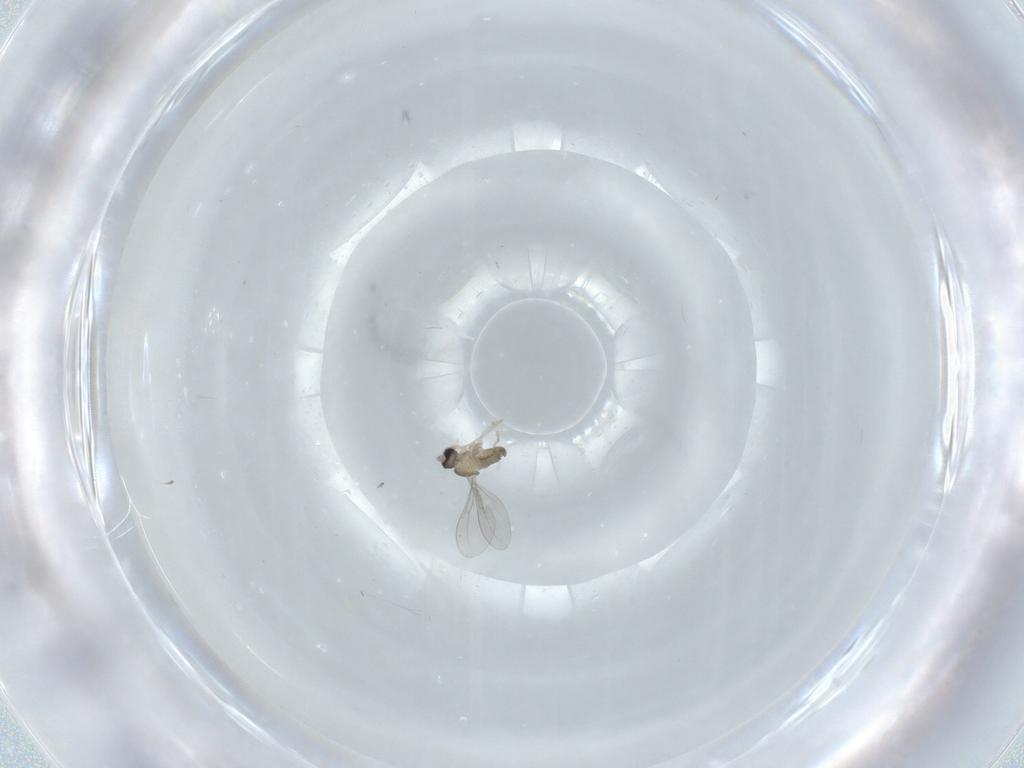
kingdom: Animalia
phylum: Arthropoda
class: Insecta
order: Diptera
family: Cecidomyiidae
